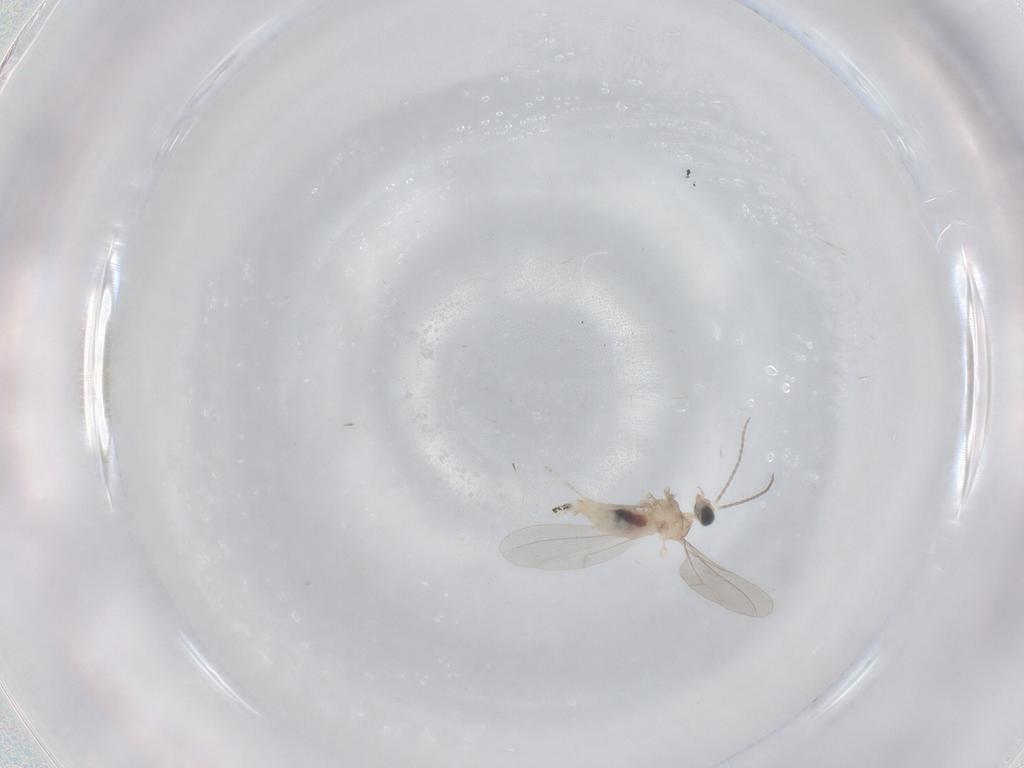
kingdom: Animalia
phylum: Arthropoda
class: Insecta
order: Diptera
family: Cecidomyiidae
